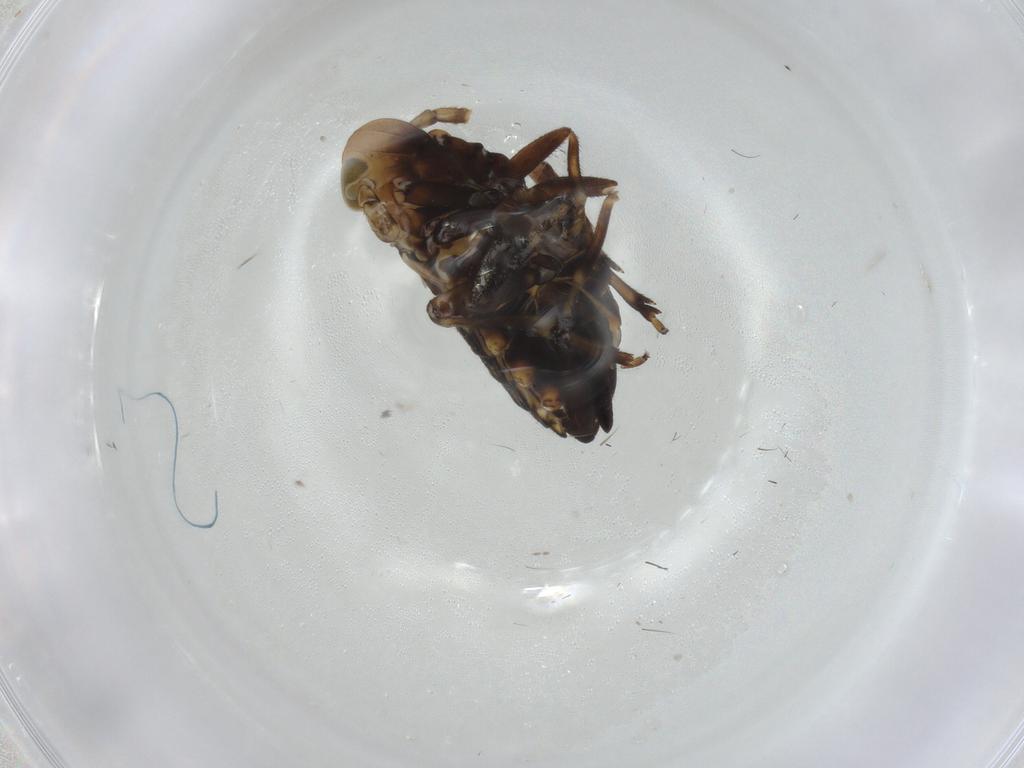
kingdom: Animalia
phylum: Arthropoda
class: Insecta
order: Hemiptera
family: Delphacidae
